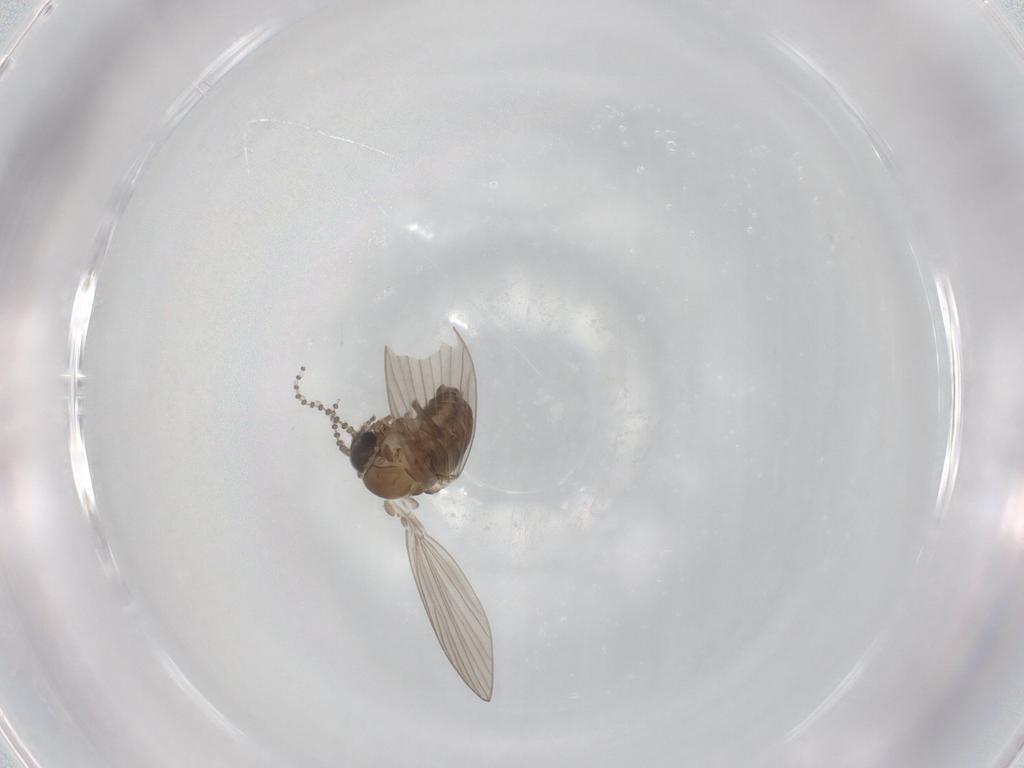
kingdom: Animalia
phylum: Arthropoda
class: Insecta
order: Diptera
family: Psychodidae
